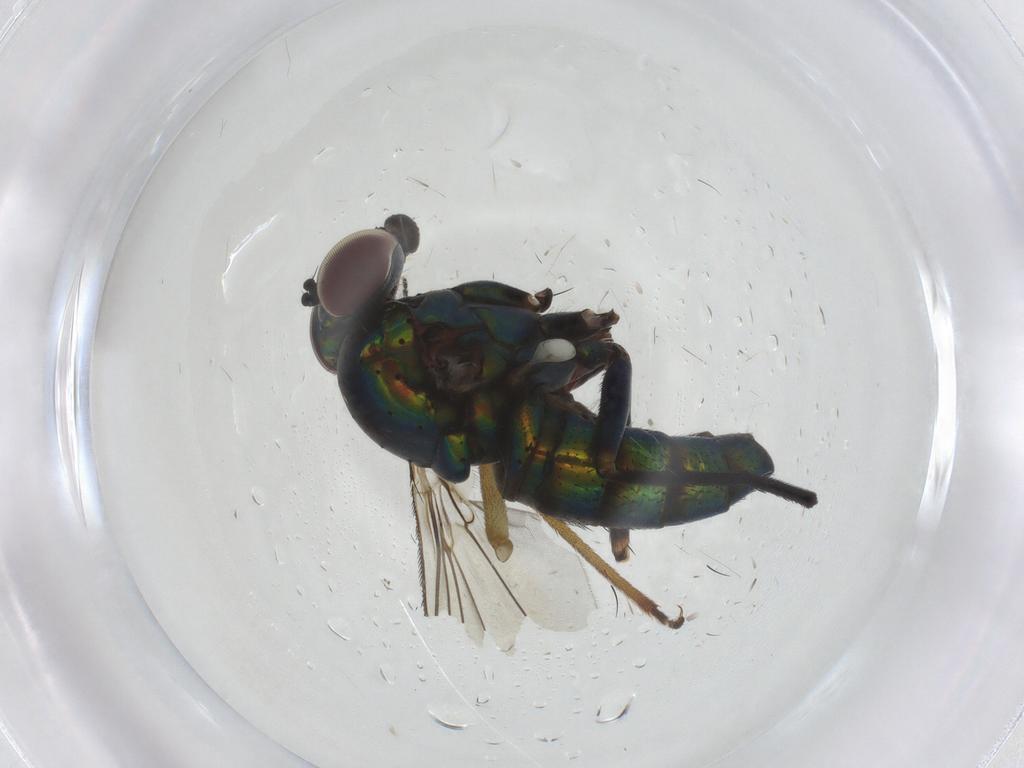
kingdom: Animalia
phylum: Arthropoda
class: Insecta
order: Diptera
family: Dolichopodidae
